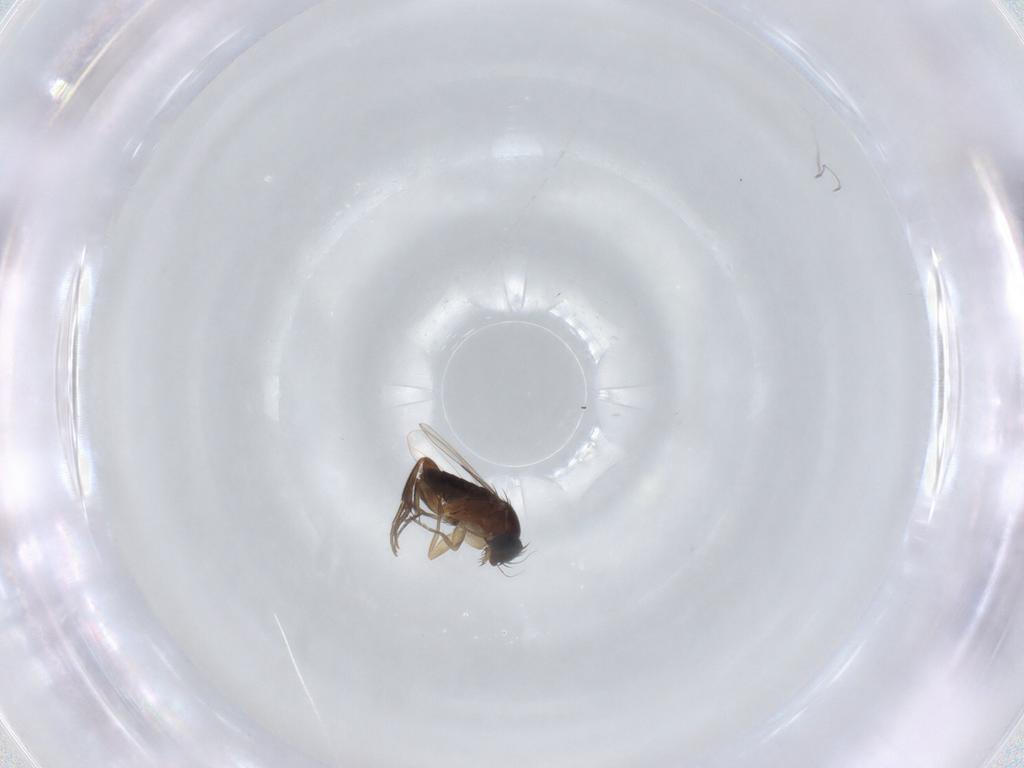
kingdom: Animalia
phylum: Arthropoda
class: Insecta
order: Diptera
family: Phoridae
